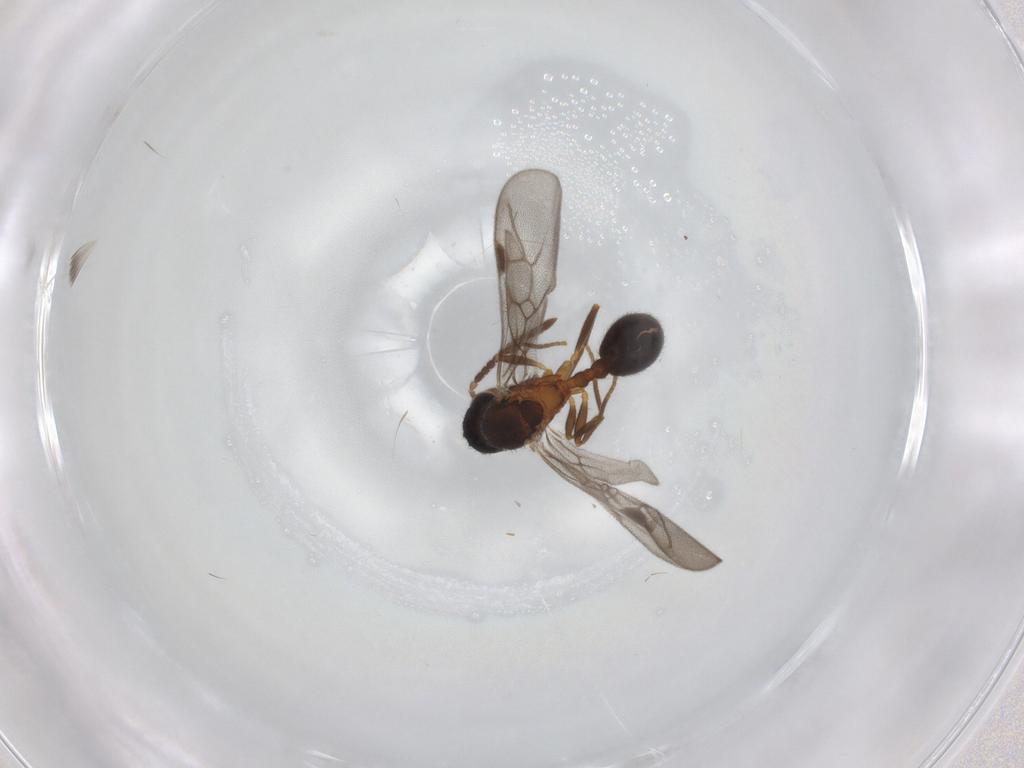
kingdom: Animalia
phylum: Arthropoda
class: Insecta
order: Hymenoptera
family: Formicidae
